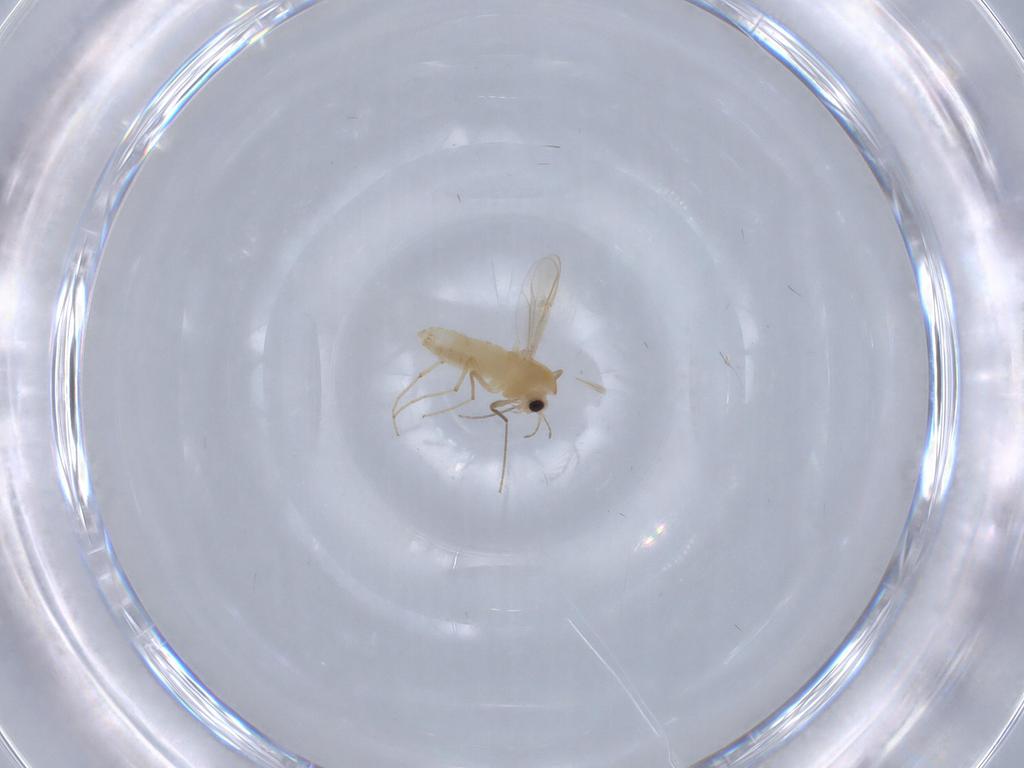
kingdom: Animalia
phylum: Arthropoda
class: Insecta
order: Diptera
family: Chironomidae
